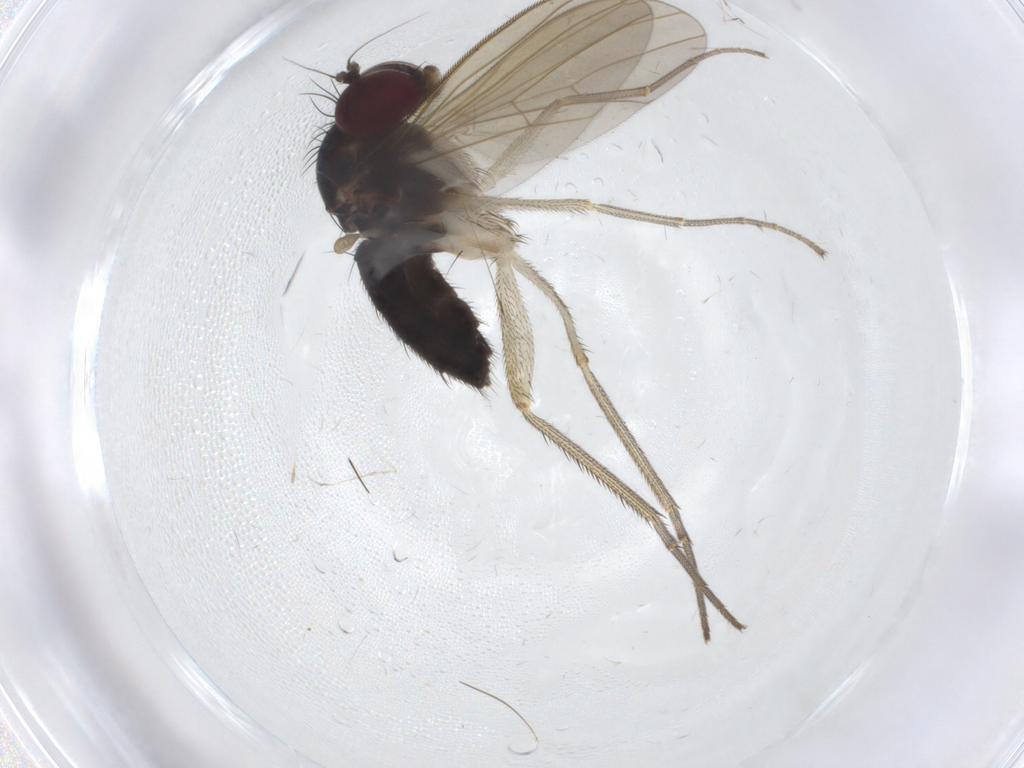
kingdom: Animalia
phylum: Arthropoda
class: Insecta
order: Diptera
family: Dolichopodidae
